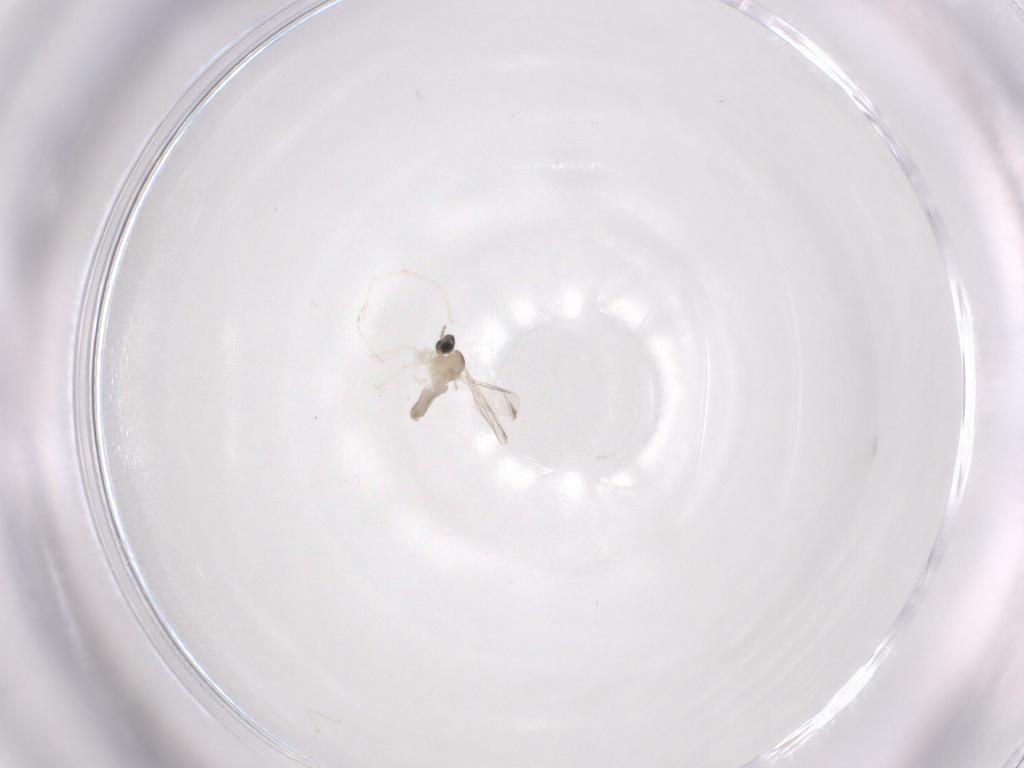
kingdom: Animalia
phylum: Arthropoda
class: Insecta
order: Diptera
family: Cecidomyiidae
